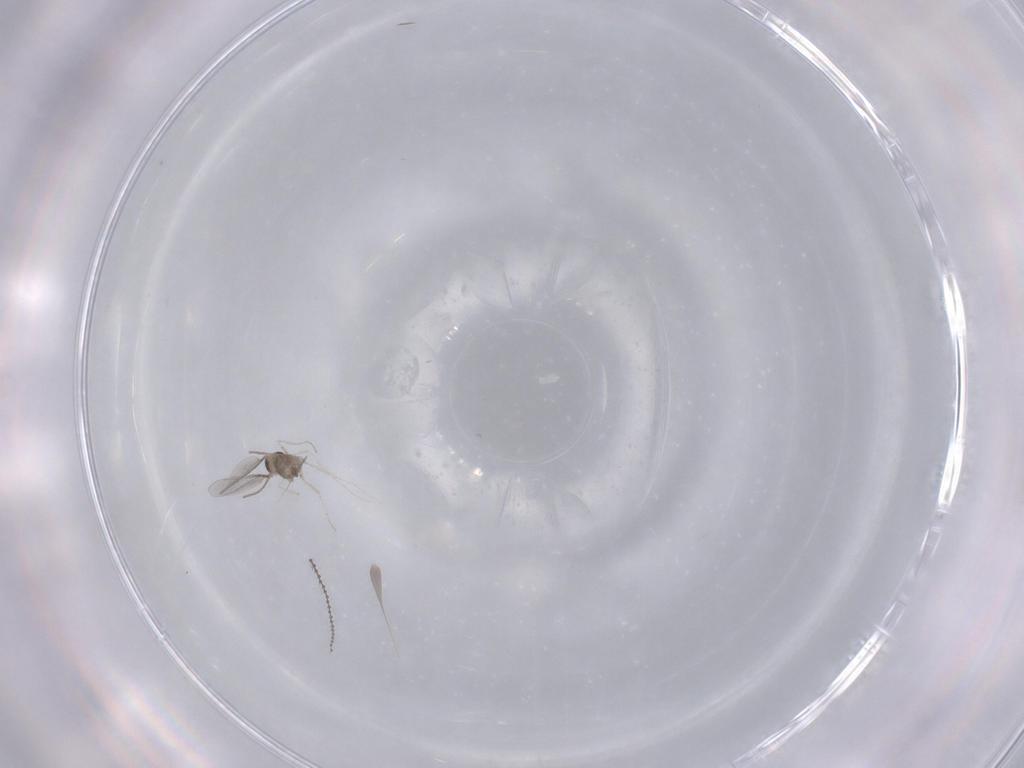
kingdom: Animalia
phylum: Arthropoda
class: Insecta
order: Diptera
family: Cecidomyiidae
